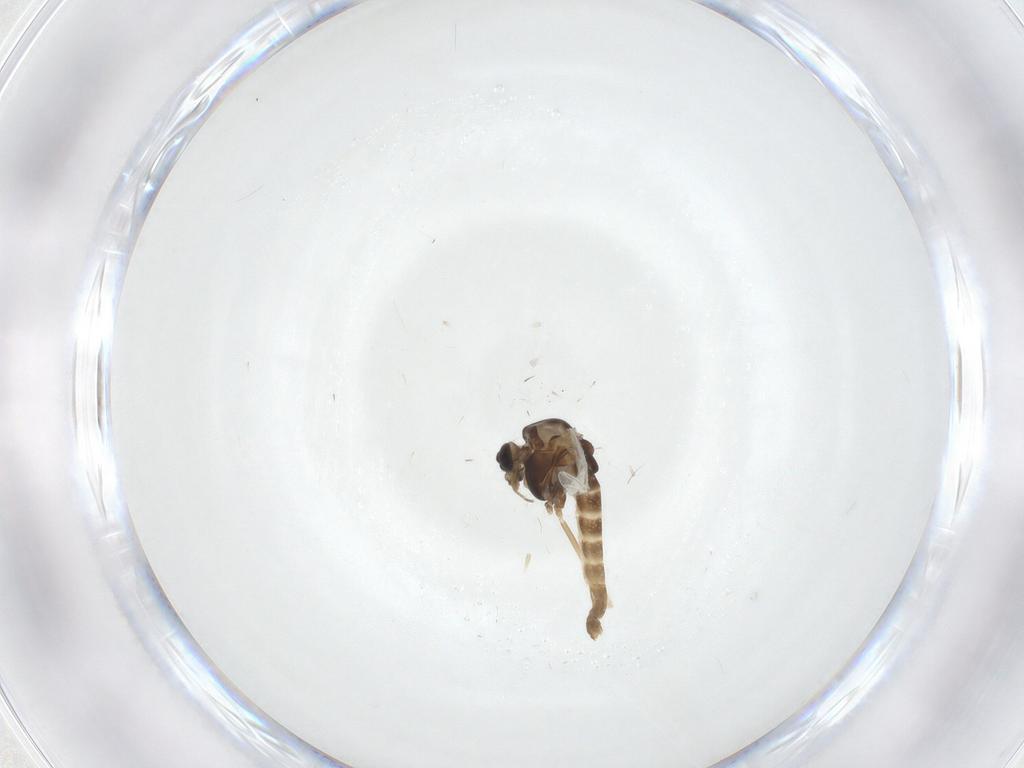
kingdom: Animalia
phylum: Arthropoda
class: Insecta
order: Diptera
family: Chironomidae
